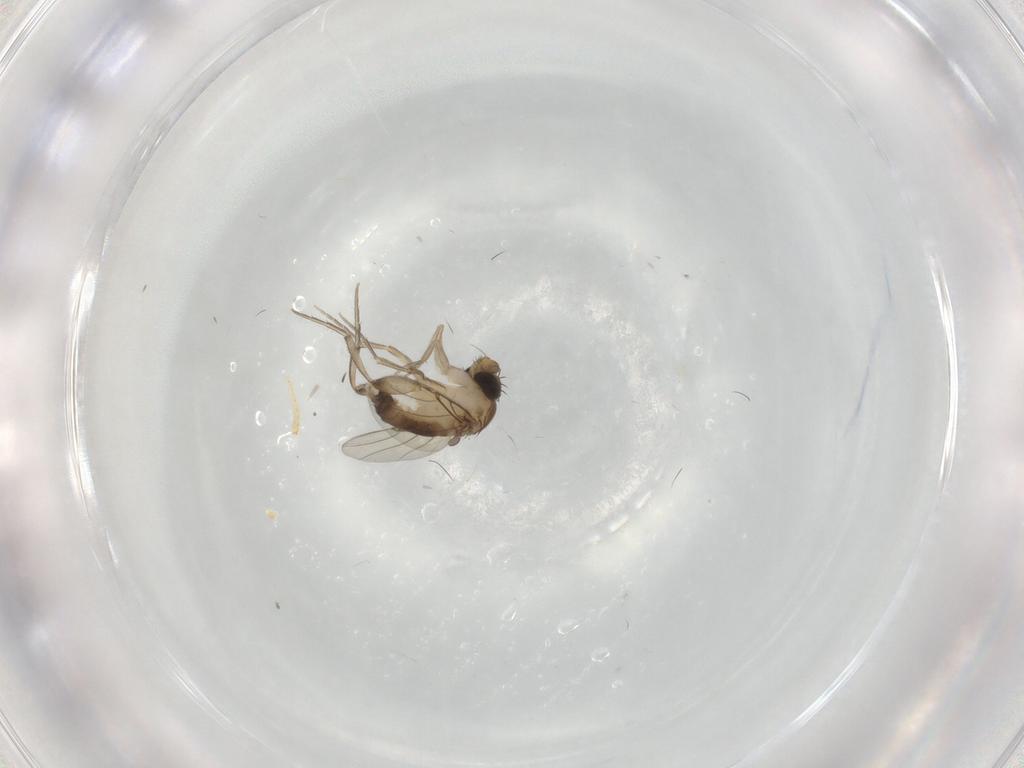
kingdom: Animalia
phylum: Arthropoda
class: Insecta
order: Diptera
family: Phoridae
